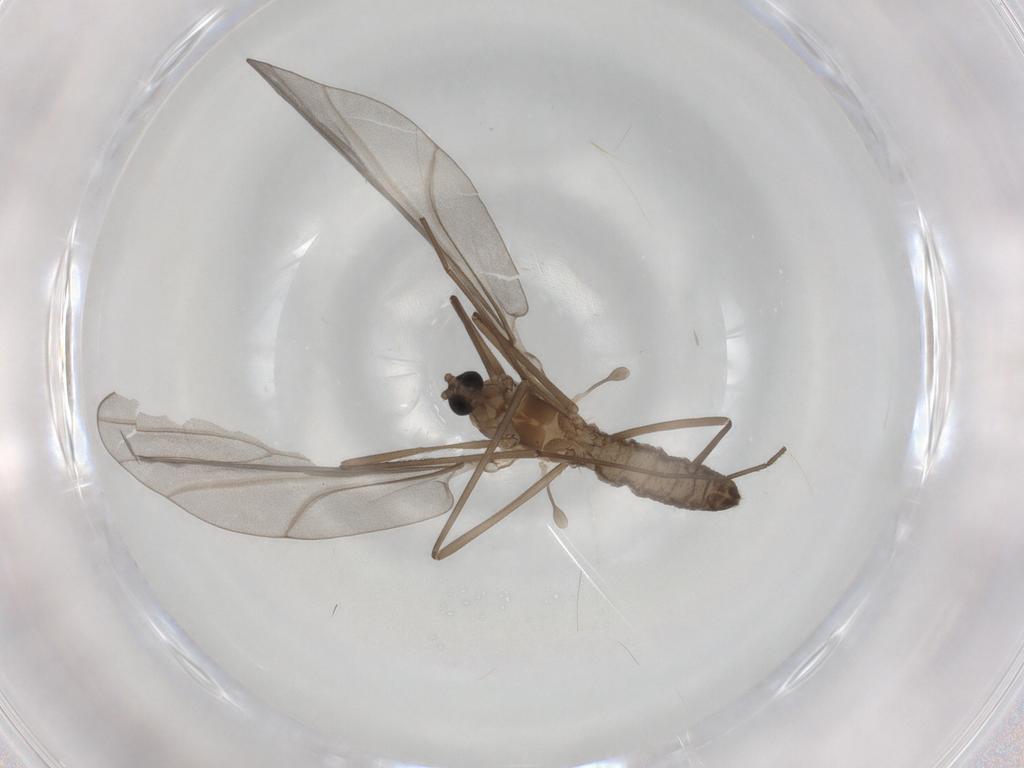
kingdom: Animalia
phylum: Arthropoda
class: Insecta
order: Diptera
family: Cecidomyiidae
